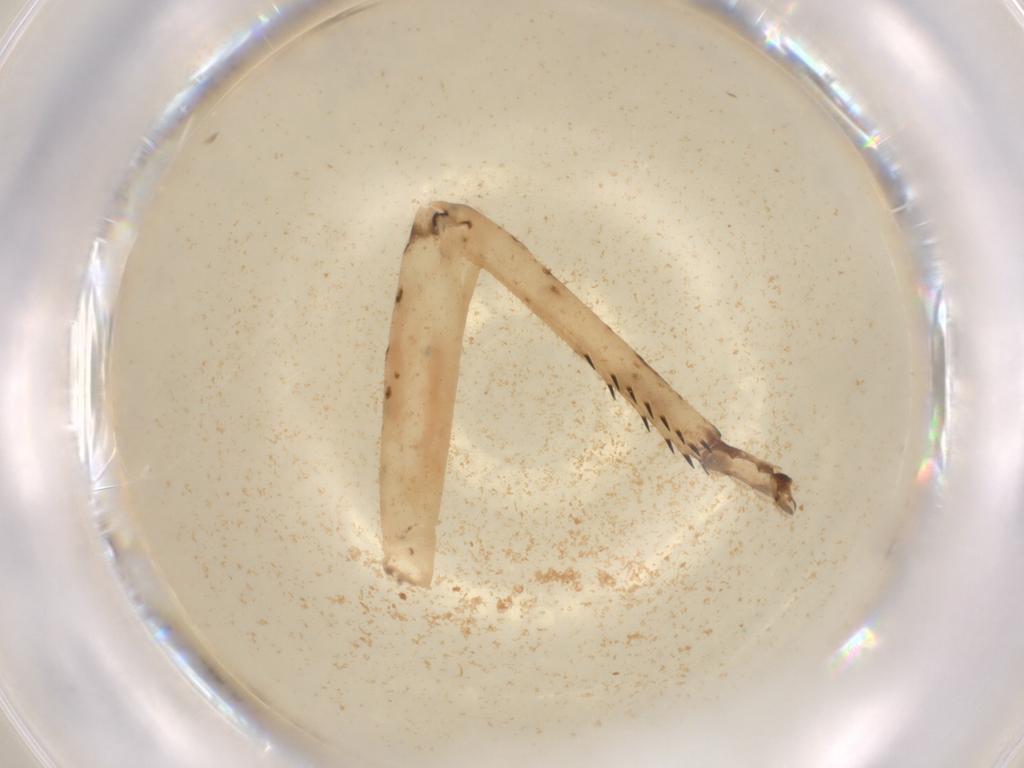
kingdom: Animalia
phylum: Arthropoda
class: Insecta
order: Orthoptera
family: Acrididae
